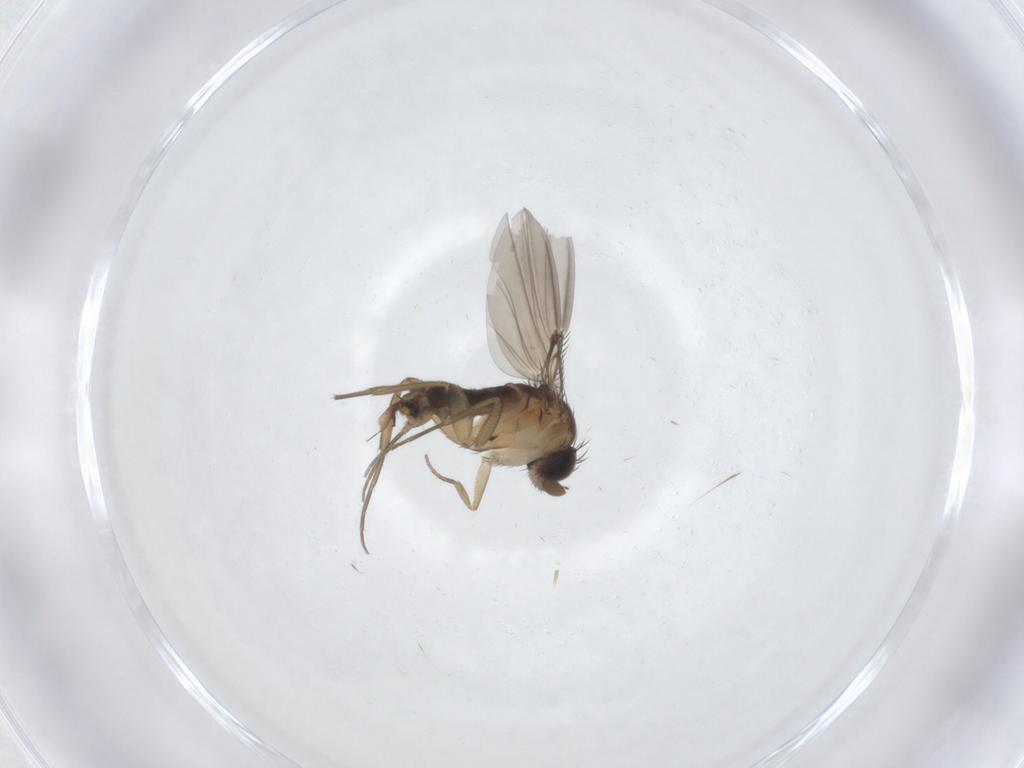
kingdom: Animalia
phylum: Arthropoda
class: Insecta
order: Diptera
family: Phoridae
